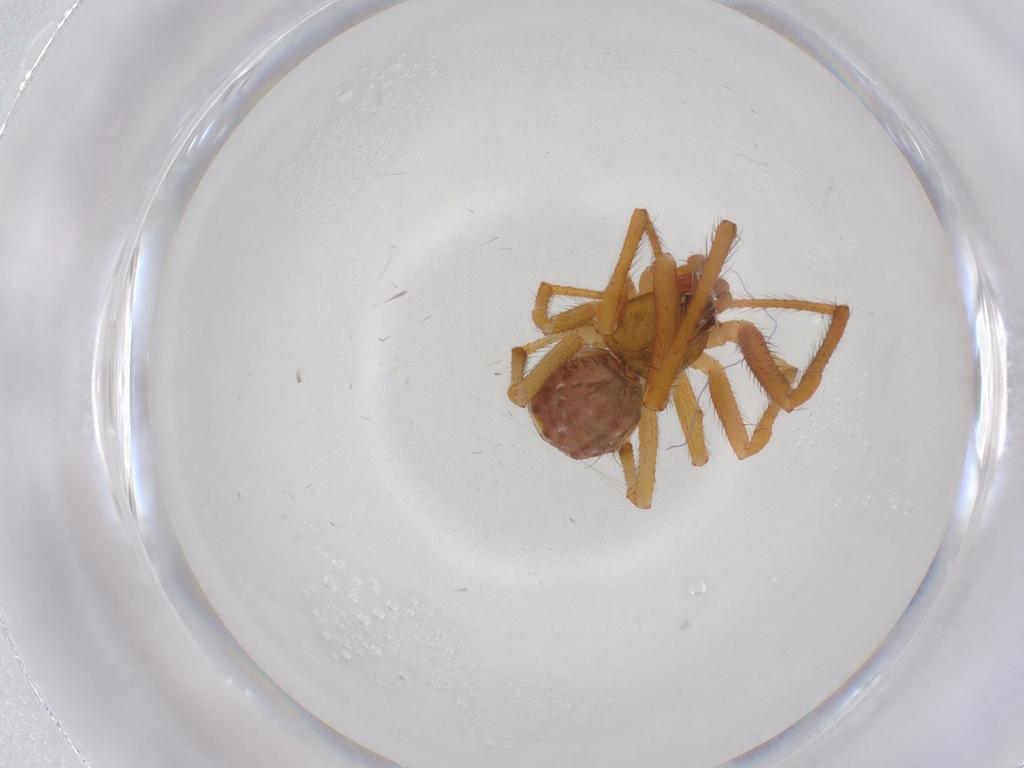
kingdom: Animalia
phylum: Arthropoda
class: Arachnida
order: Araneae
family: Theridiidae
